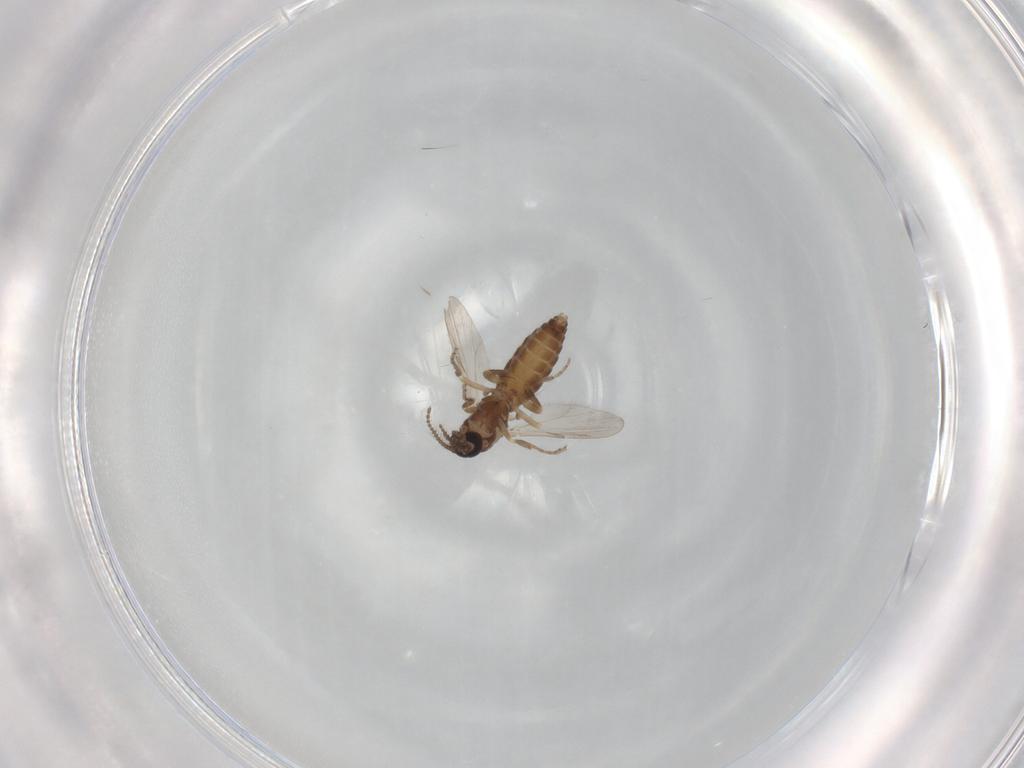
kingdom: Animalia
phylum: Arthropoda
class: Insecta
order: Diptera
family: Ceratopogonidae
